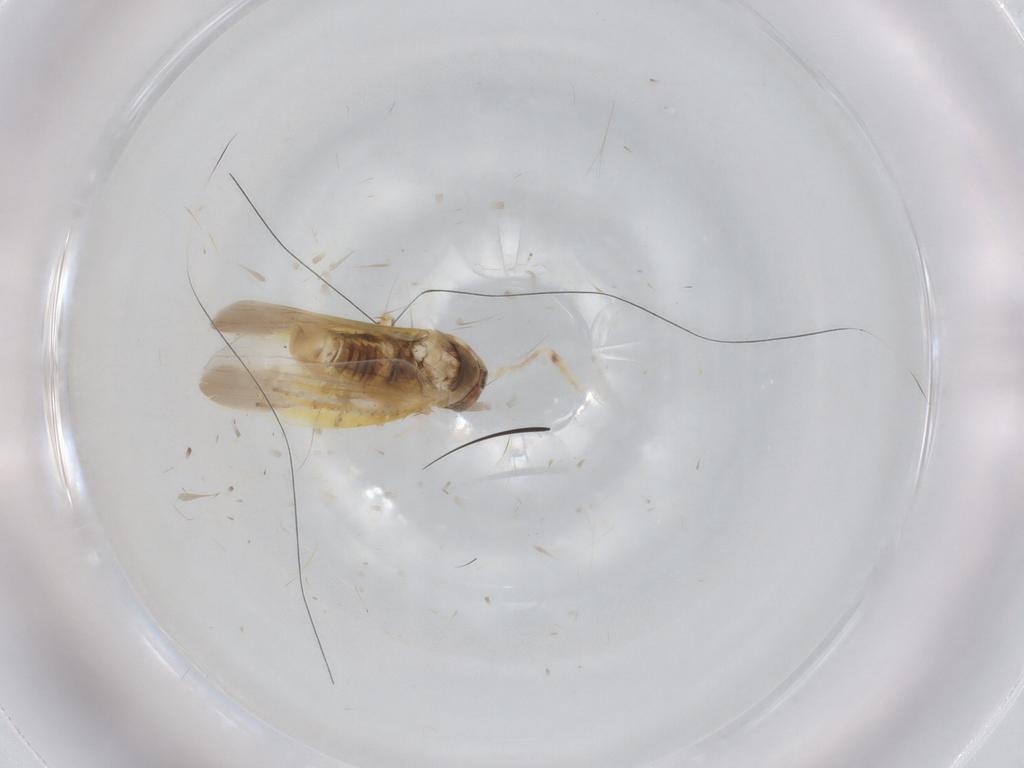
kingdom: Animalia
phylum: Arthropoda
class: Insecta
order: Hemiptera
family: Cicadellidae
